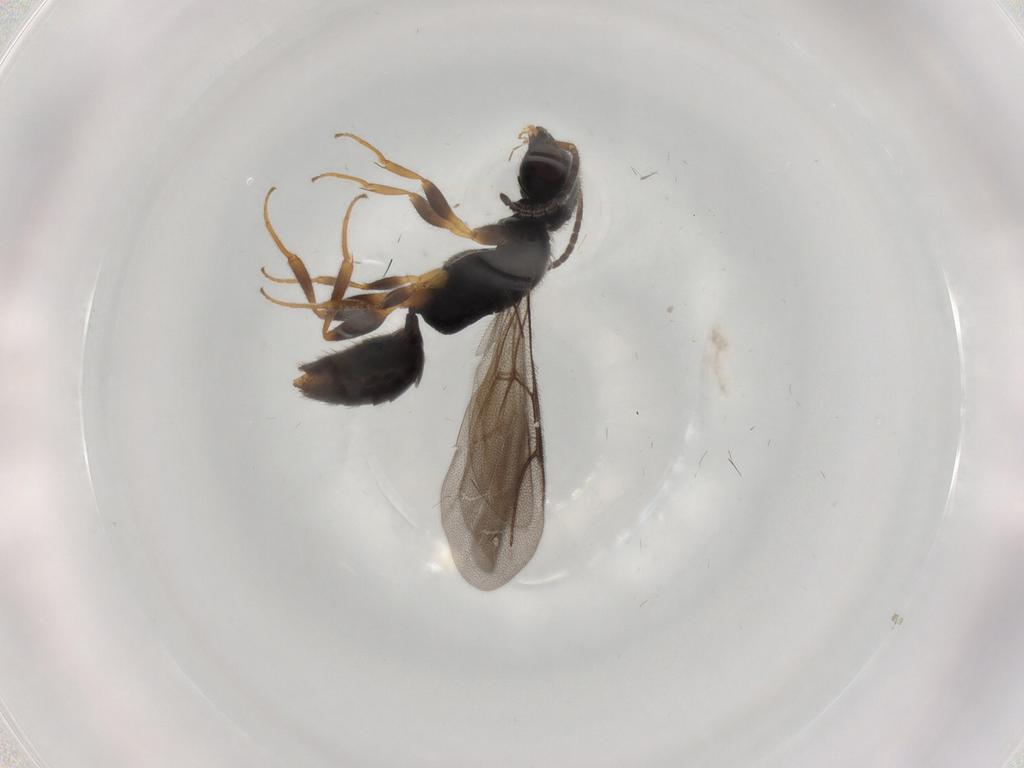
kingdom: Animalia
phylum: Arthropoda
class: Insecta
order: Hymenoptera
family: Bethylidae
